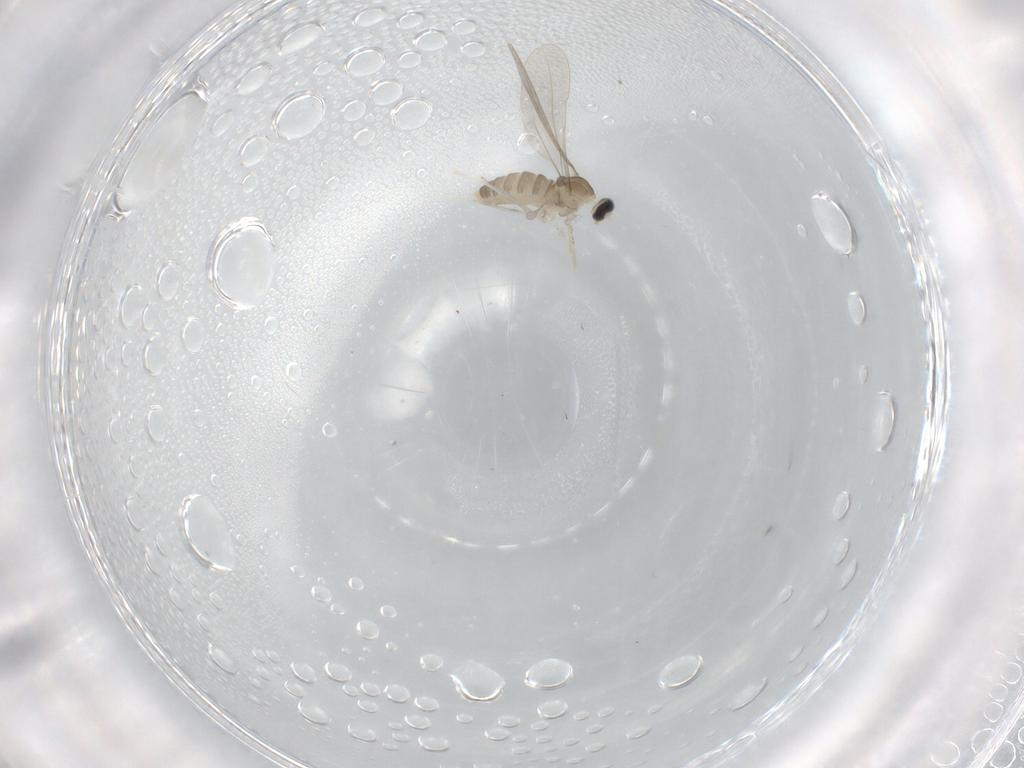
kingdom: Animalia
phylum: Arthropoda
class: Insecta
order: Diptera
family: Cecidomyiidae
